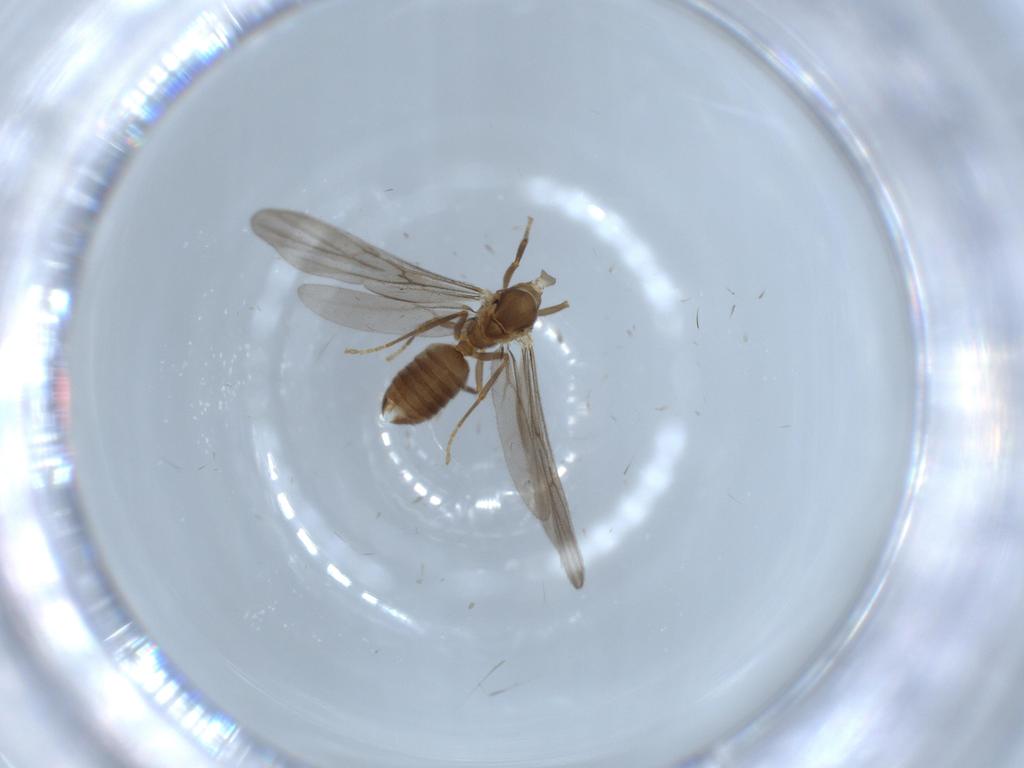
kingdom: Animalia
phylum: Arthropoda
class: Insecta
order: Hymenoptera
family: Formicidae
